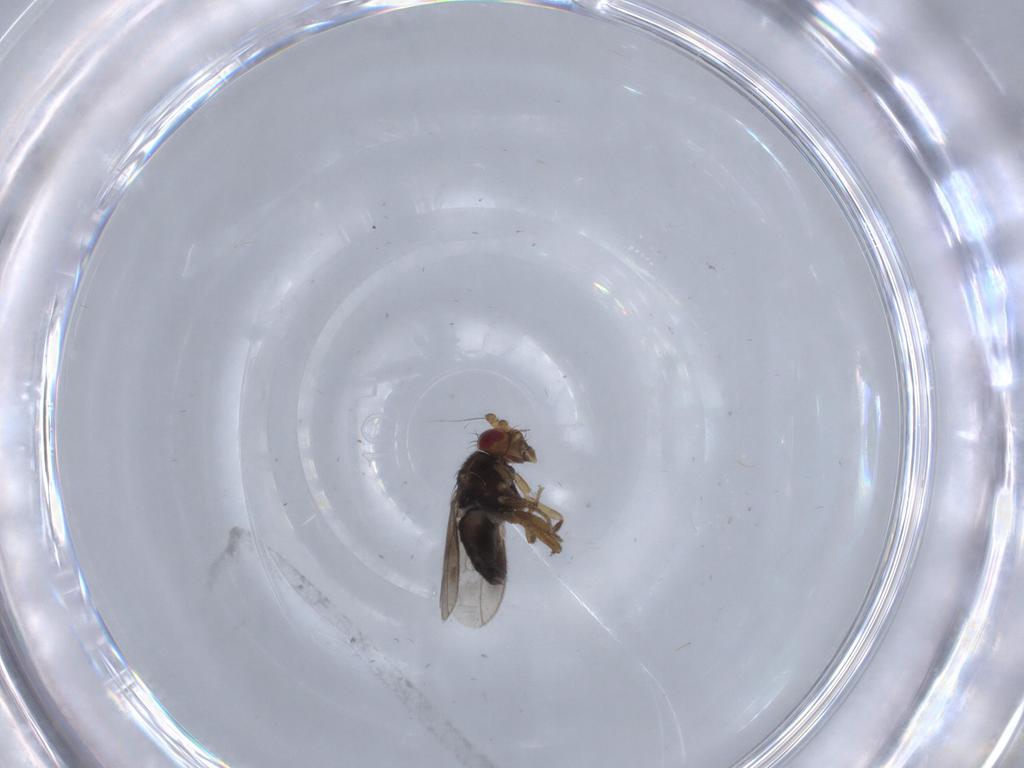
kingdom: Animalia
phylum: Arthropoda
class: Insecta
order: Diptera
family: Sphaeroceridae
